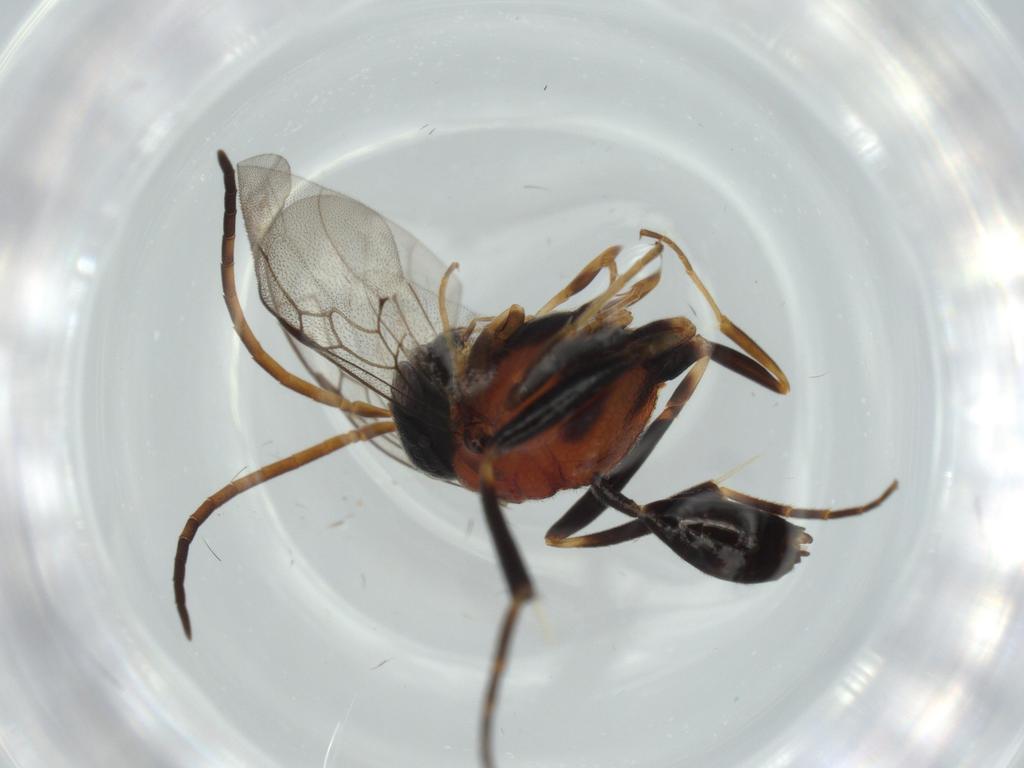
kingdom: Animalia
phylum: Arthropoda
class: Insecta
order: Hymenoptera
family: Evaniidae
